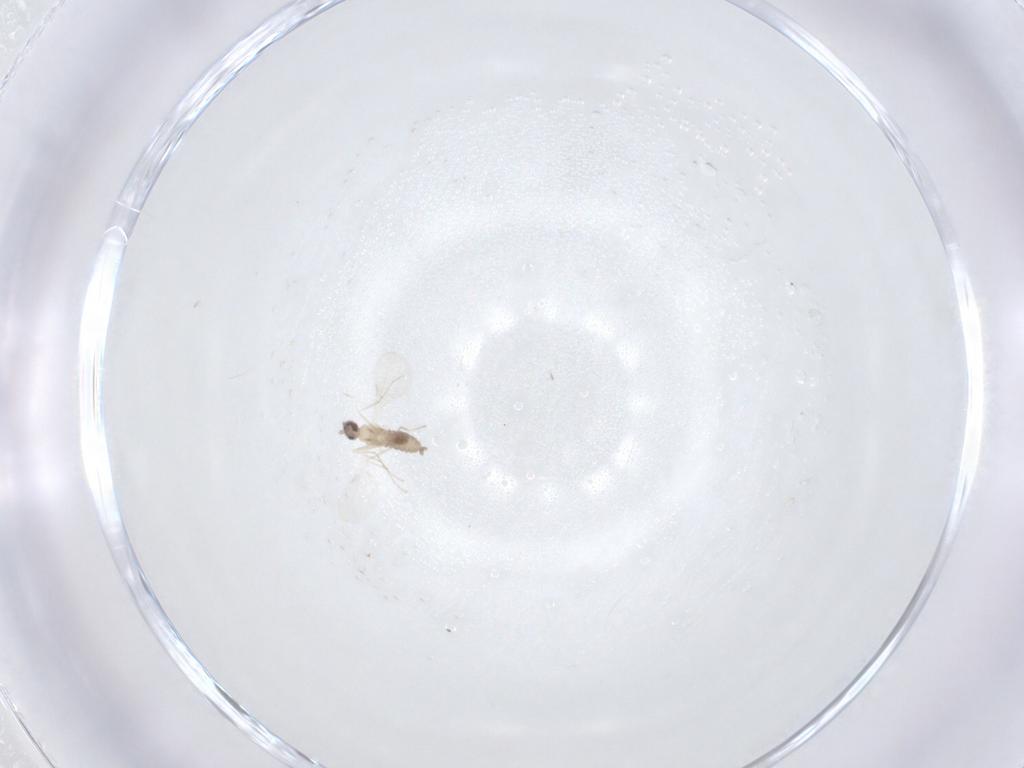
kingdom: Animalia
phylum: Arthropoda
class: Insecta
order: Diptera
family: Cecidomyiidae
